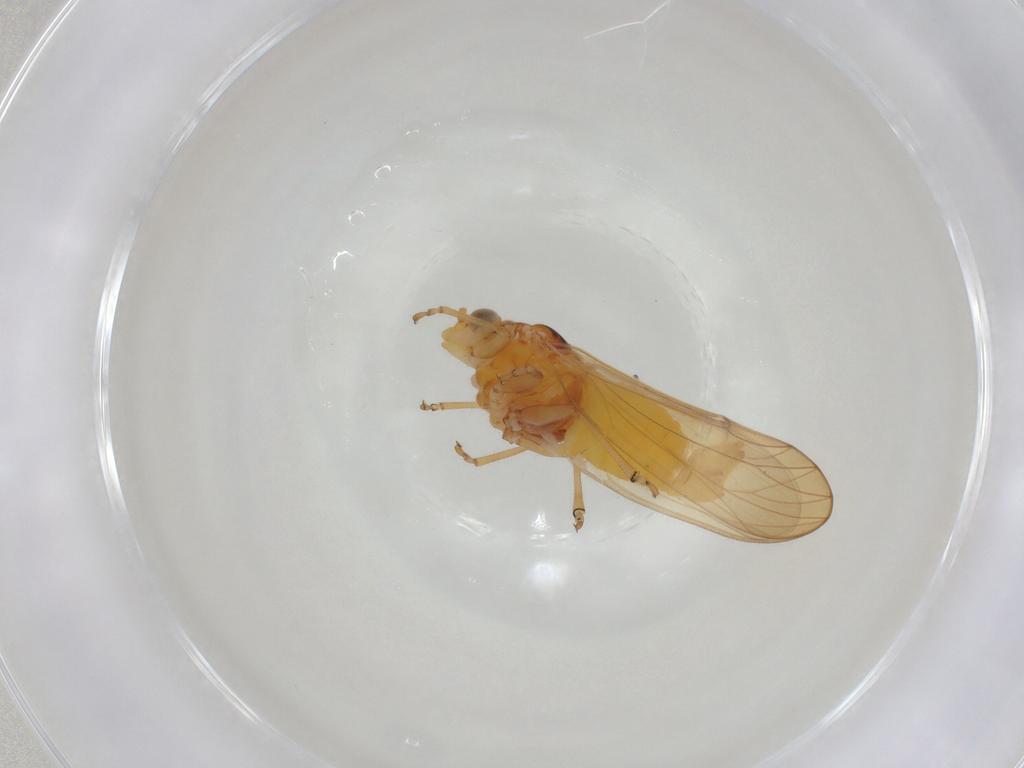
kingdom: Animalia
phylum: Arthropoda
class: Insecta
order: Hemiptera
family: Psylloidea_incertae_sedis
